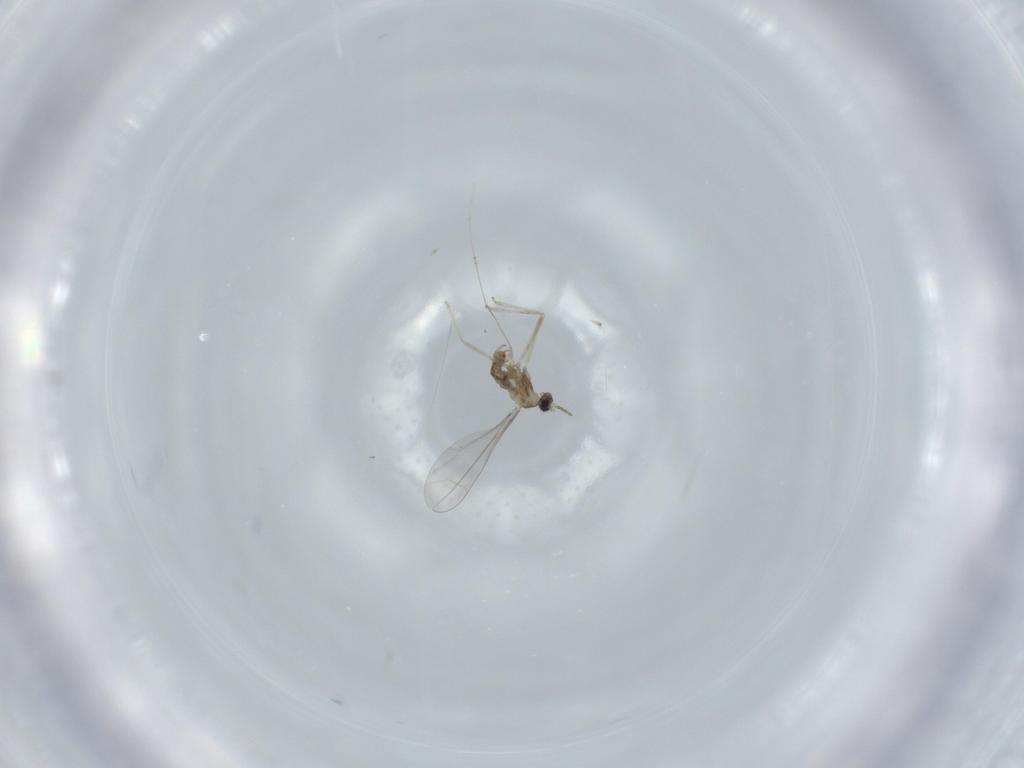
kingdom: Animalia
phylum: Arthropoda
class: Insecta
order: Diptera
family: Cecidomyiidae
